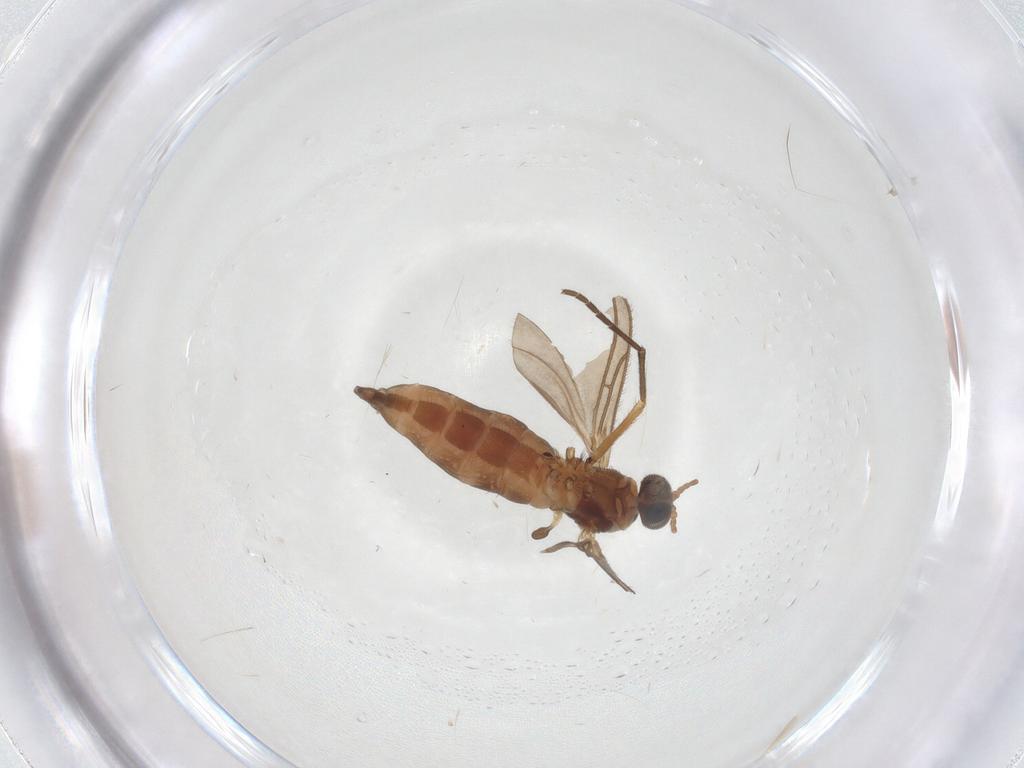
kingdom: Animalia
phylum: Arthropoda
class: Insecta
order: Diptera
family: Sciaridae
